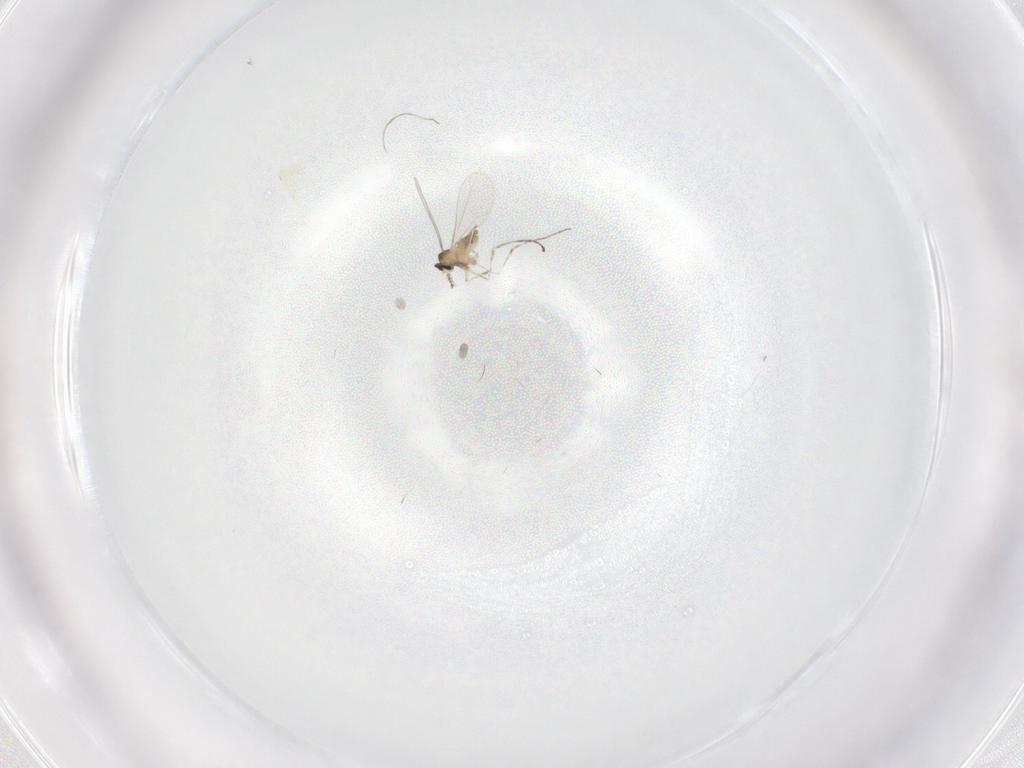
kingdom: Animalia
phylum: Arthropoda
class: Insecta
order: Diptera
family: Cecidomyiidae
